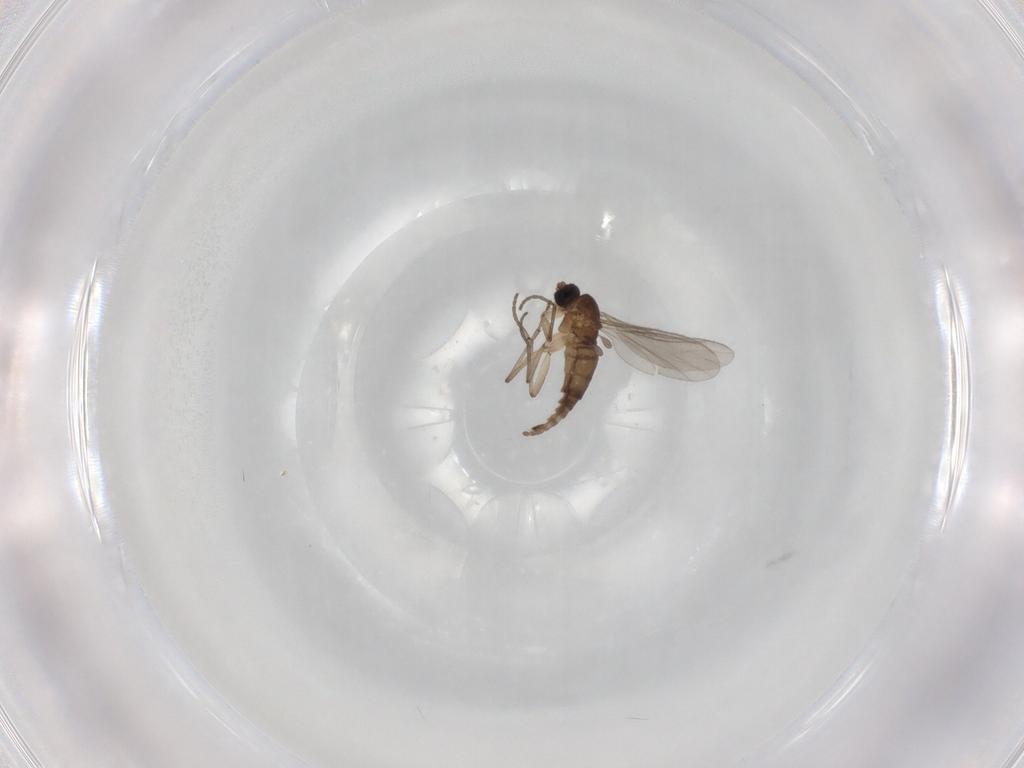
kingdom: Animalia
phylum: Arthropoda
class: Insecta
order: Diptera
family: Sciaridae
